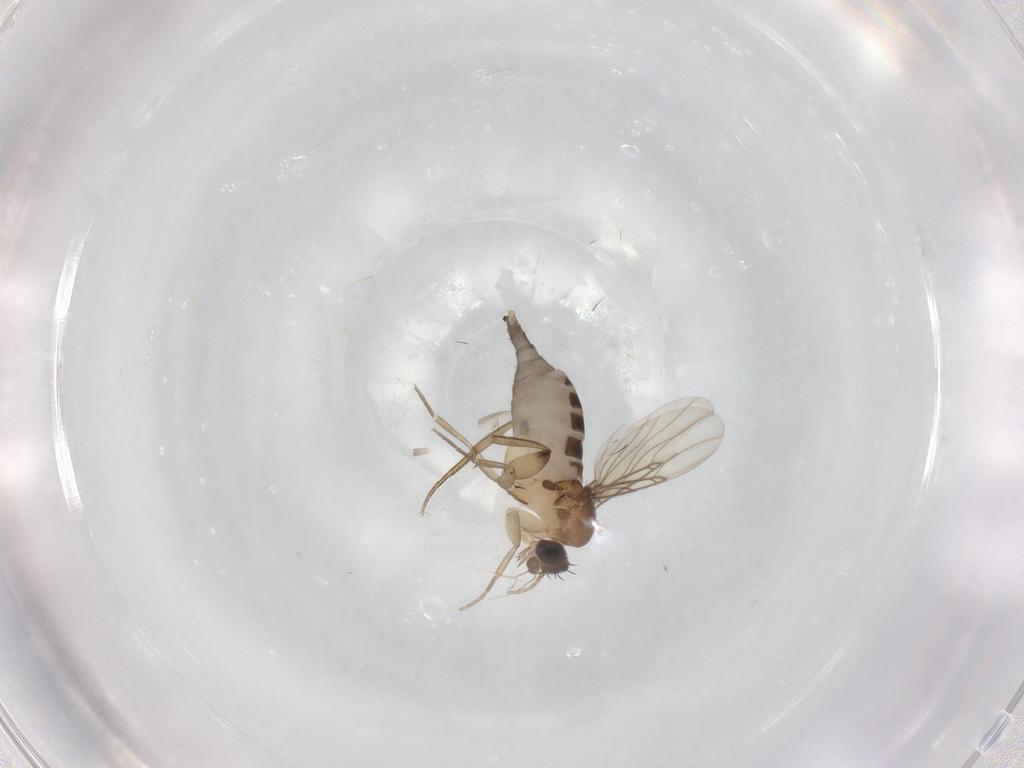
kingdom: Animalia
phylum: Arthropoda
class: Insecta
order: Diptera
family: Phoridae
